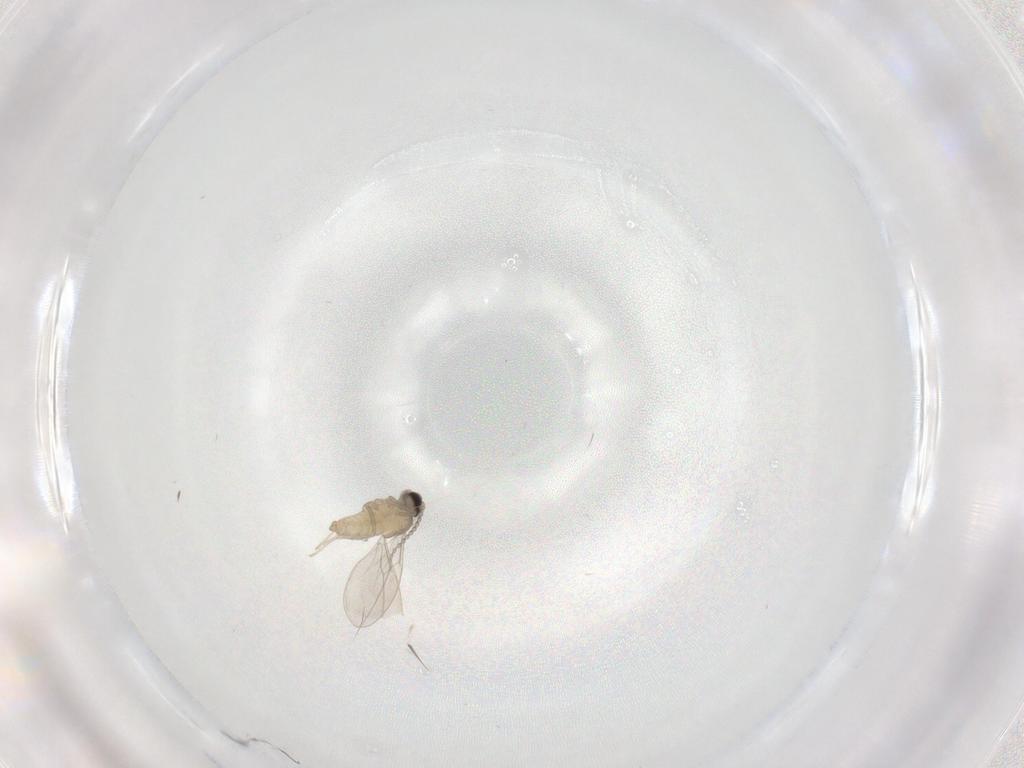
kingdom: Animalia
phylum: Arthropoda
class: Insecta
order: Diptera
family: Cecidomyiidae
